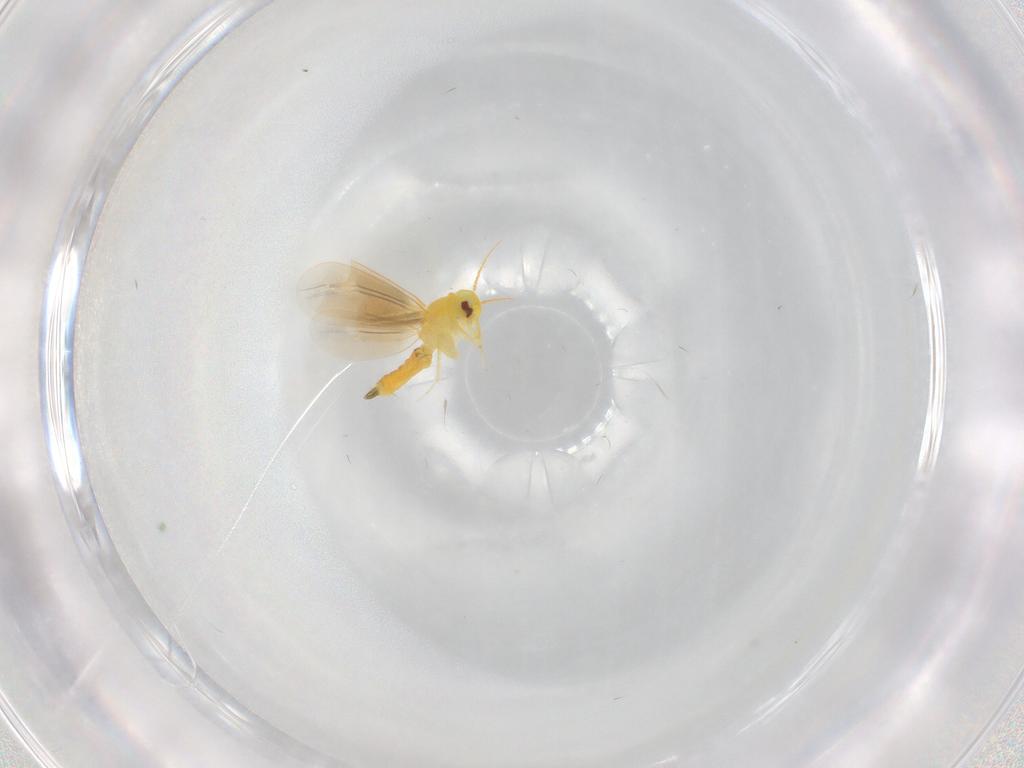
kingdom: Animalia
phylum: Arthropoda
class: Insecta
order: Hemiptera
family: Aleyrodidae
